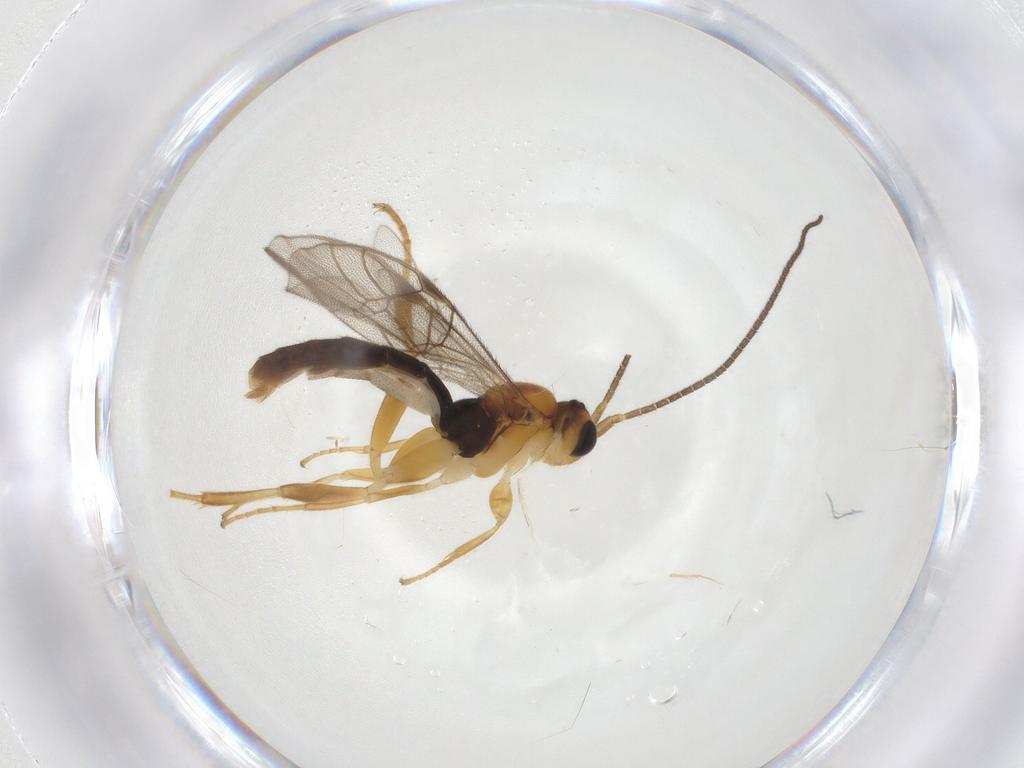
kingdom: Animalia
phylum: Arthropoda
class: Insecta
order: Hymenoptera
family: Ichneumonidae
